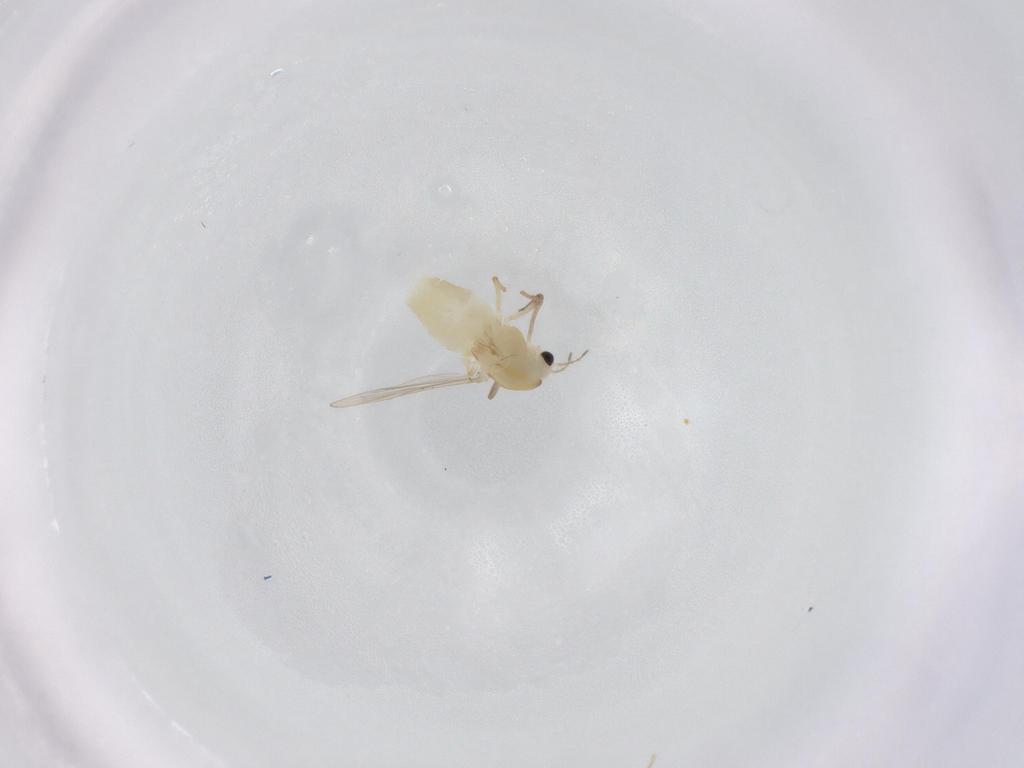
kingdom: Animalia
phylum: Arthropoda
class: Insecta
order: Diptera
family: Chironomidae
